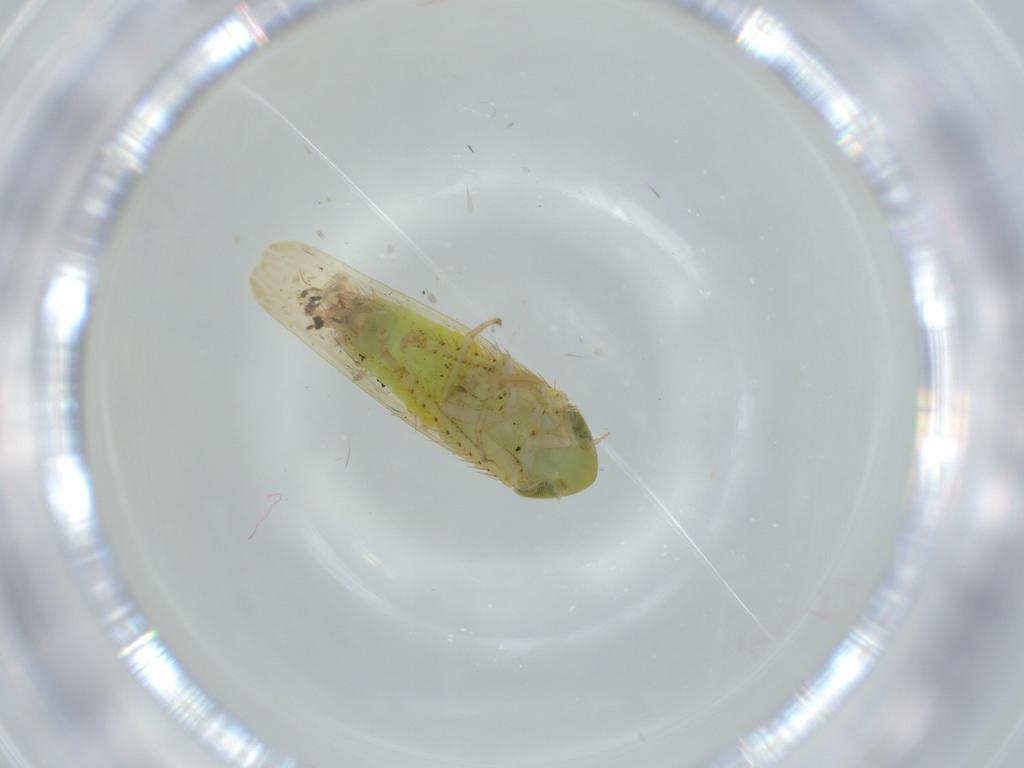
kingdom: Animalia
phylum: Arthropoda
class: Insecta
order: Hemiptera
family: Cicadellidae
